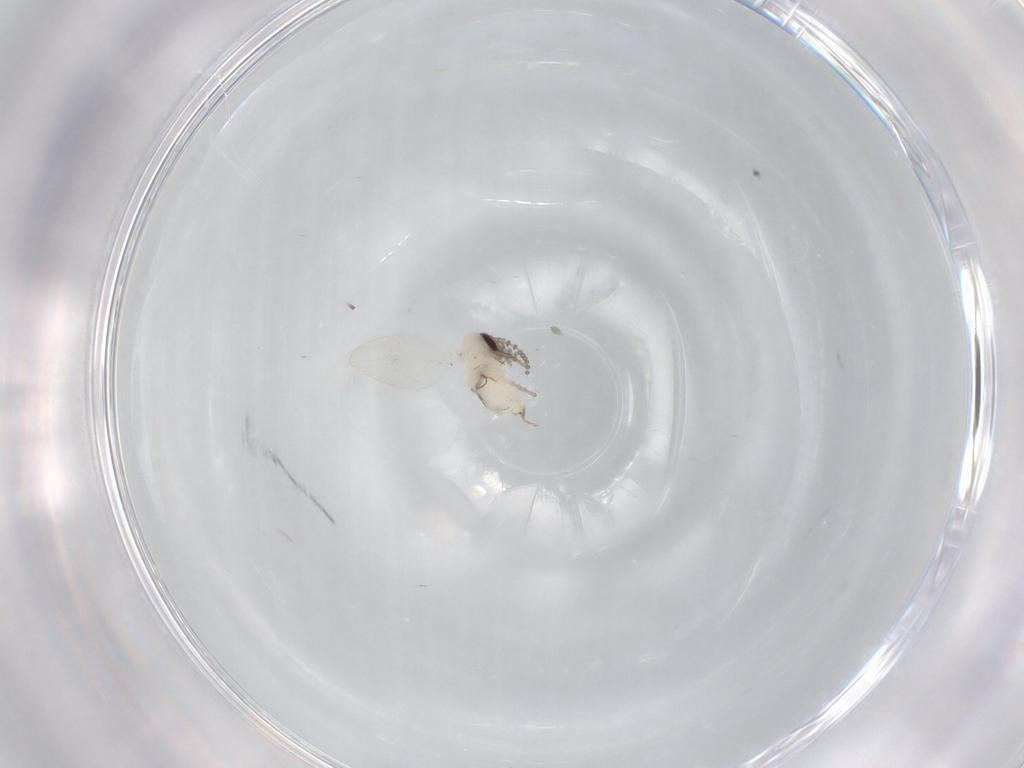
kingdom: Animalia
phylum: Arthropoda
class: Insecta
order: Diptera
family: Psychodidae
